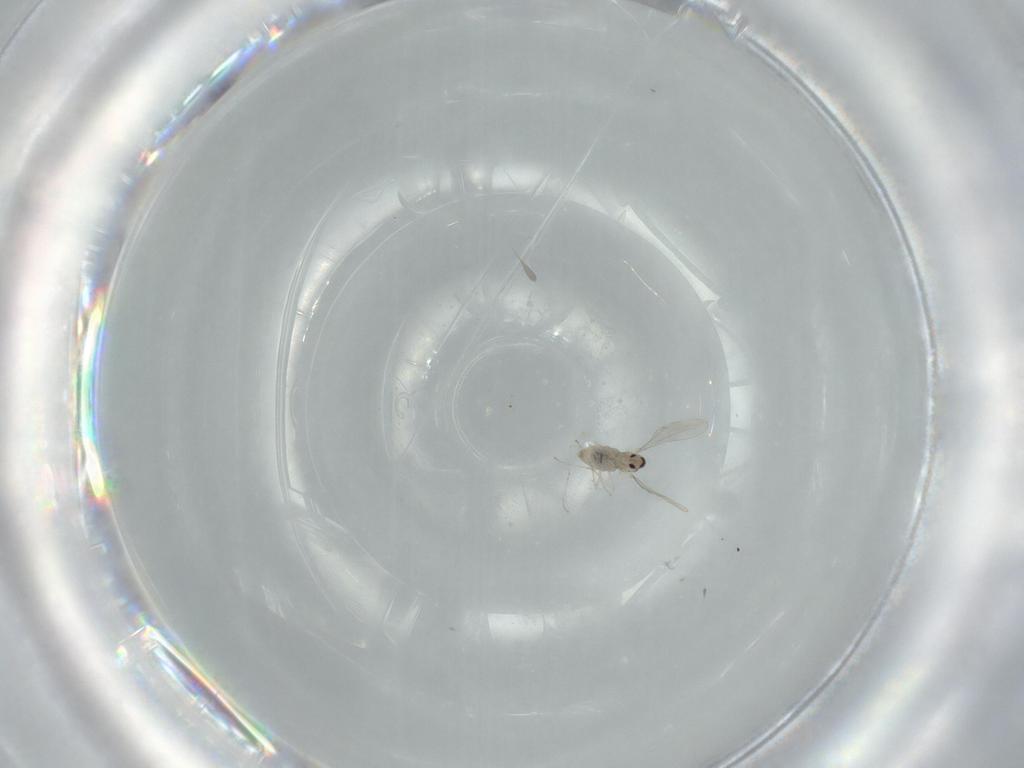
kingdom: Animalia
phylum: Arthropoda
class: Insecta
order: Diptera
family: Cecidomyiidae
